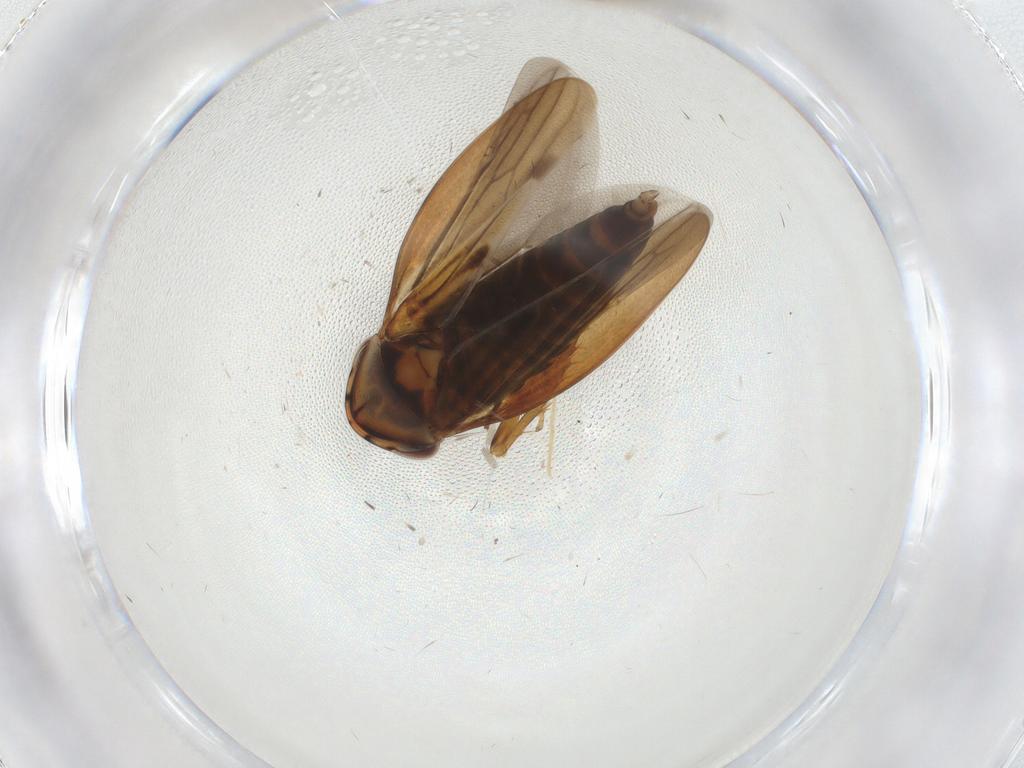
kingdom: Animalia
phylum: Arthropoda
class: Insecta
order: Hemiptera
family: Cicadellidae
